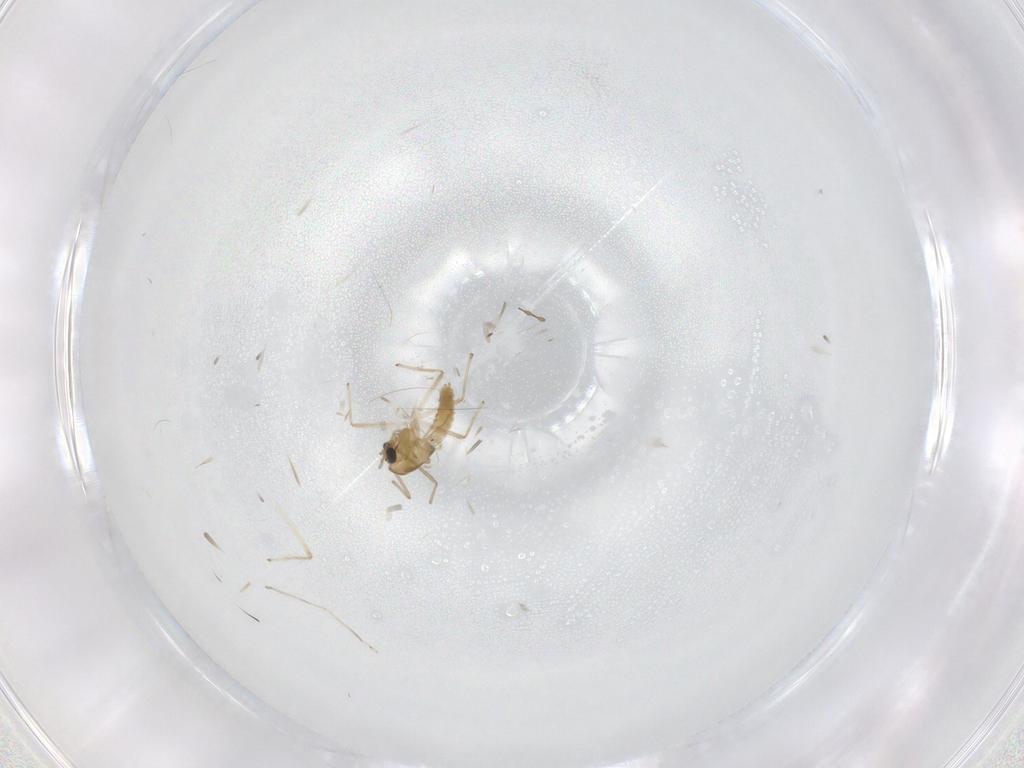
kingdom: Animalia
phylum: Arthropoda
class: Insecta
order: Diptera
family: Chironomidae
